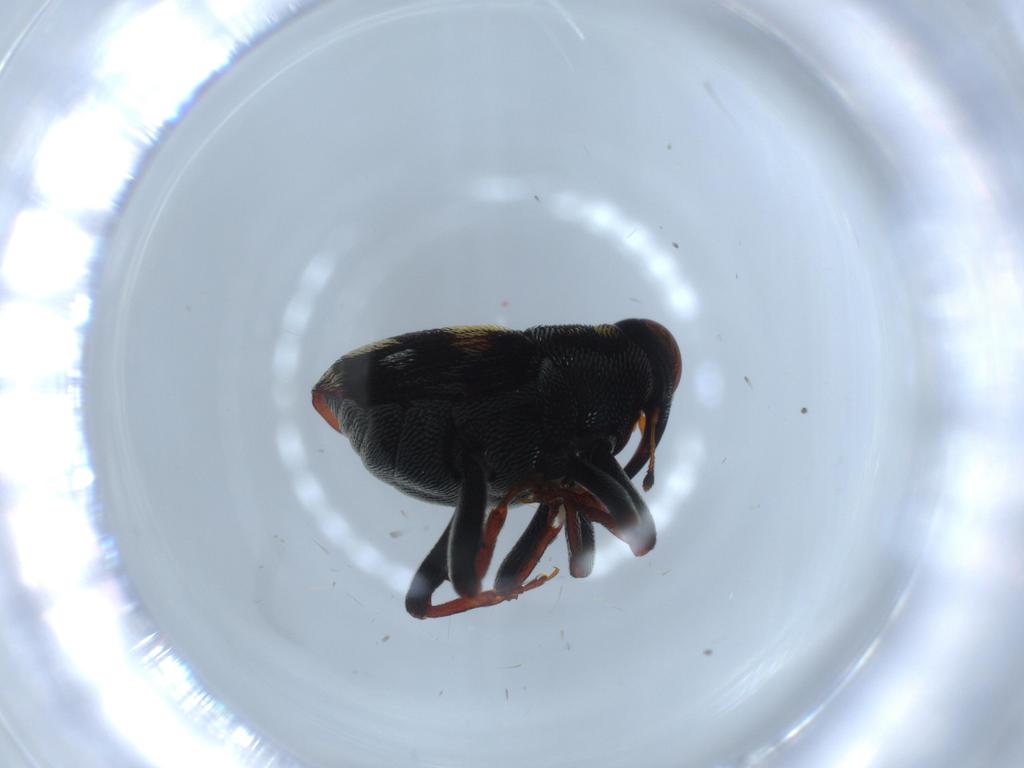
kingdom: Animalia
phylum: Arthropoda
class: Insecta
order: Coleoptera
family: Curculionidae
